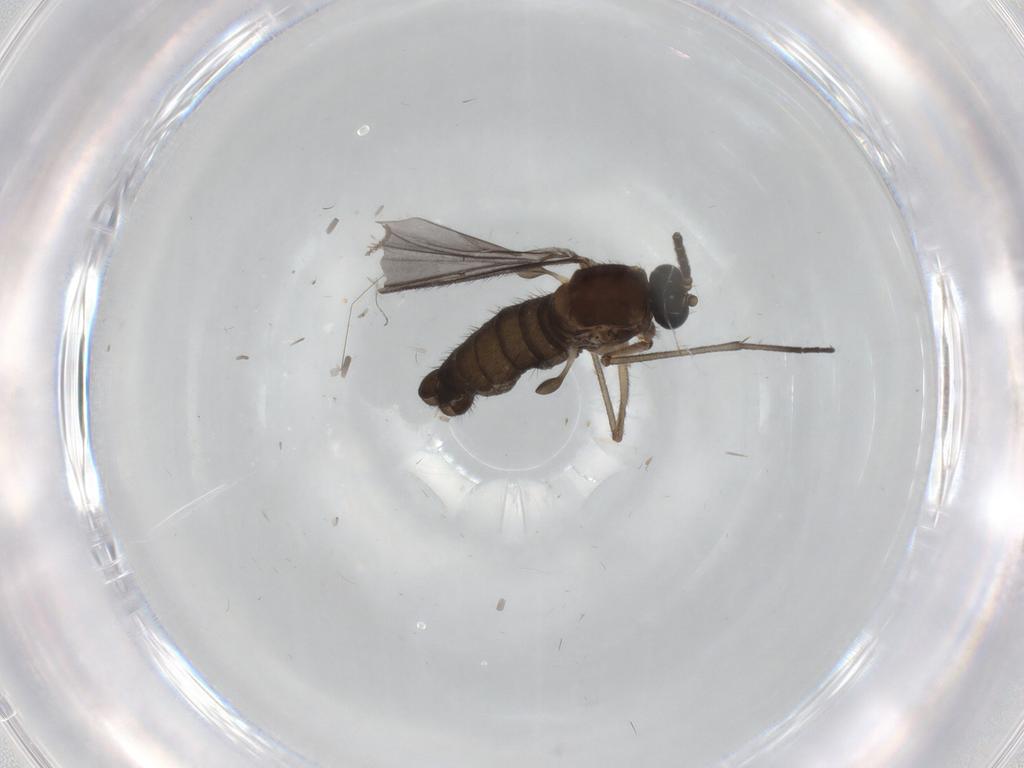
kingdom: Animalia
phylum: Arthropoda
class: Insecta
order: Diptera
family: Sciaridae
